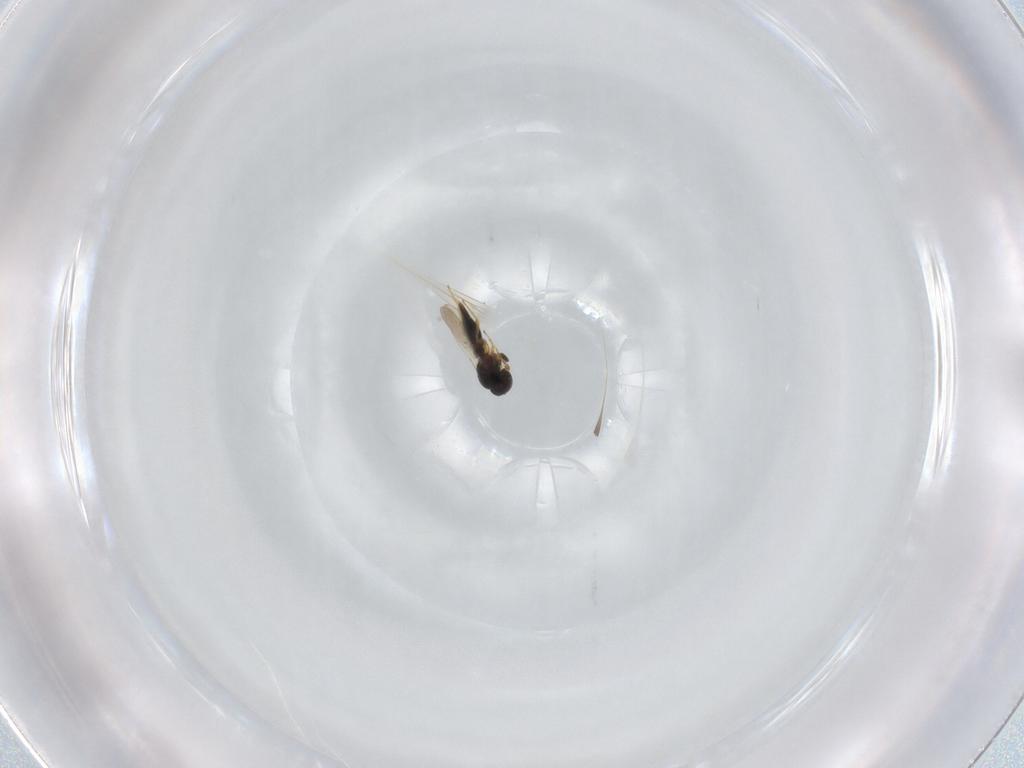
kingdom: Animalia
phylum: Arthropoda
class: Insecta
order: Hymenoptera
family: Platygastridae
